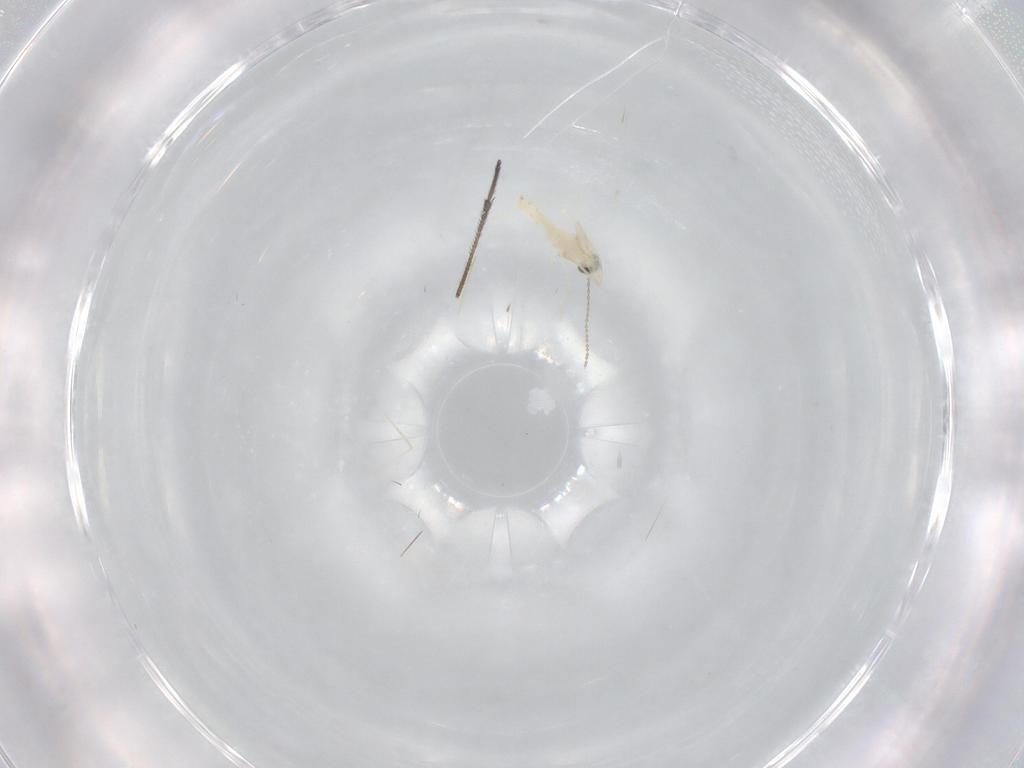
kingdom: Animalia
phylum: Arthropoda
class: Insecta
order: Diptera
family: Cecidomyiidae
